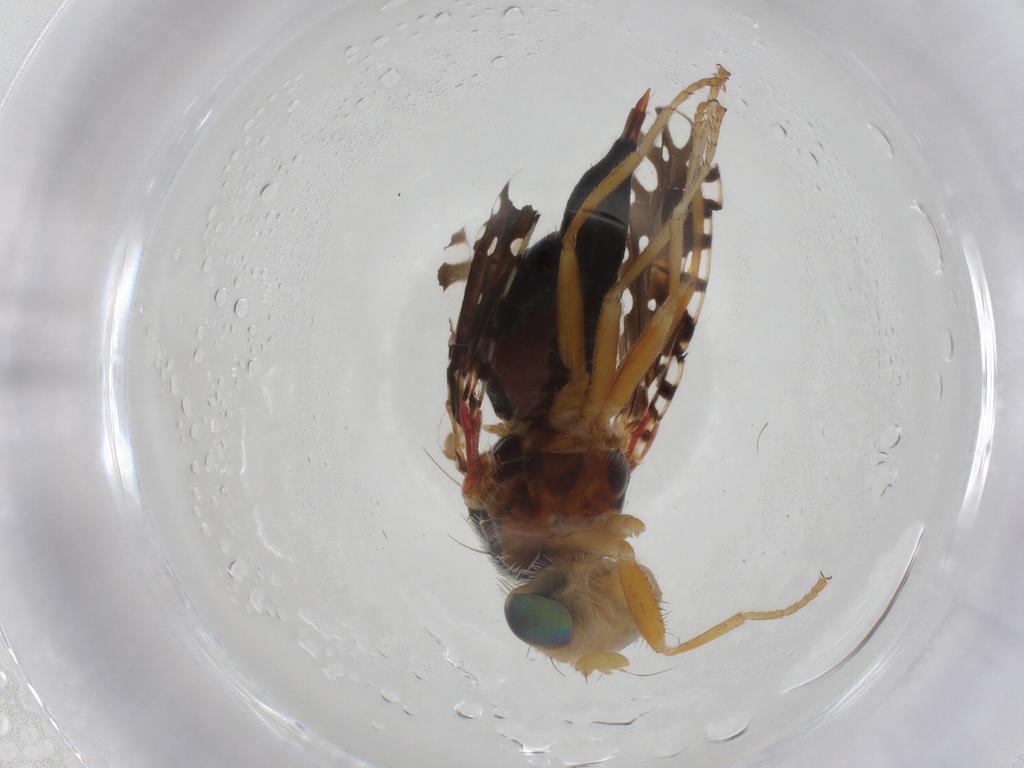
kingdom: Animalia
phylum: Arthropoda
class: Insecta
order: Diptera
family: Tephritidae
